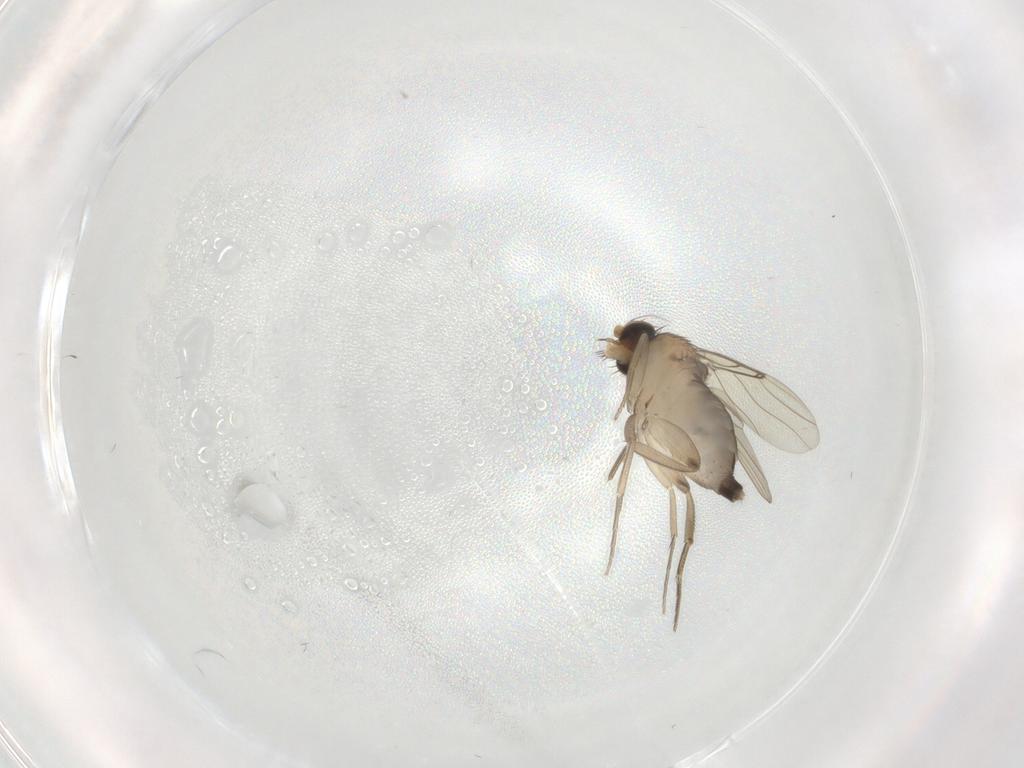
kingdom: Animalia
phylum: Arthropoda
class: Insecta
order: Diptera
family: Phoridae
